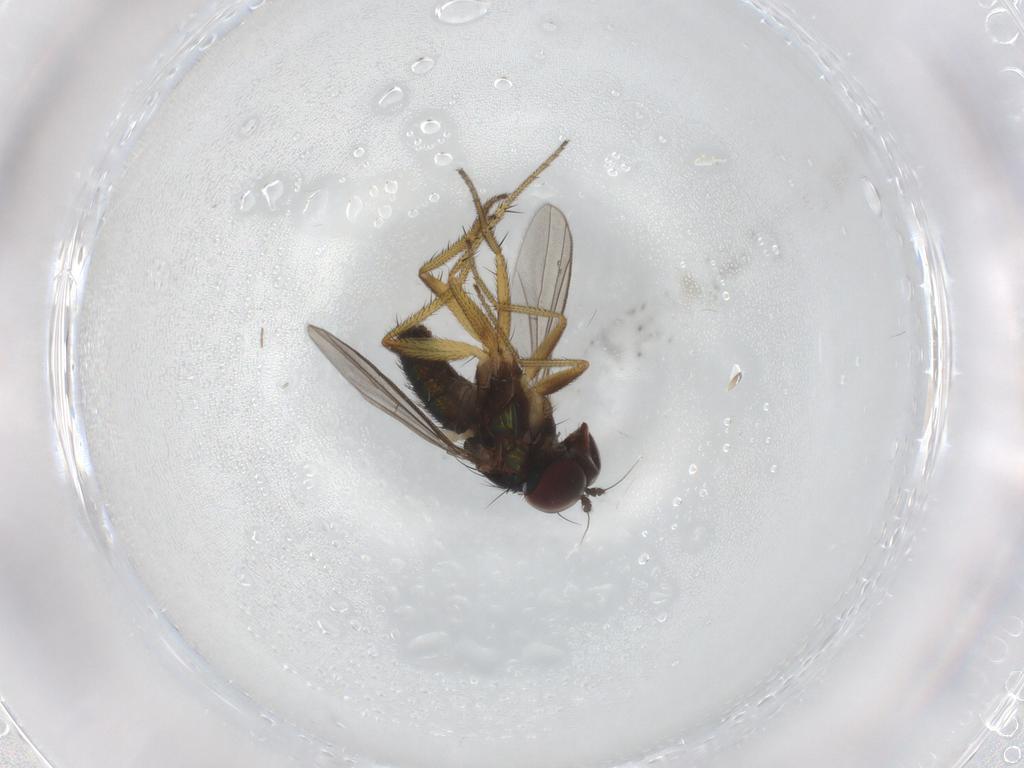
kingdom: Animalia
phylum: Arthropoda
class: Insecta
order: Diptera
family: Dolichopodidae
